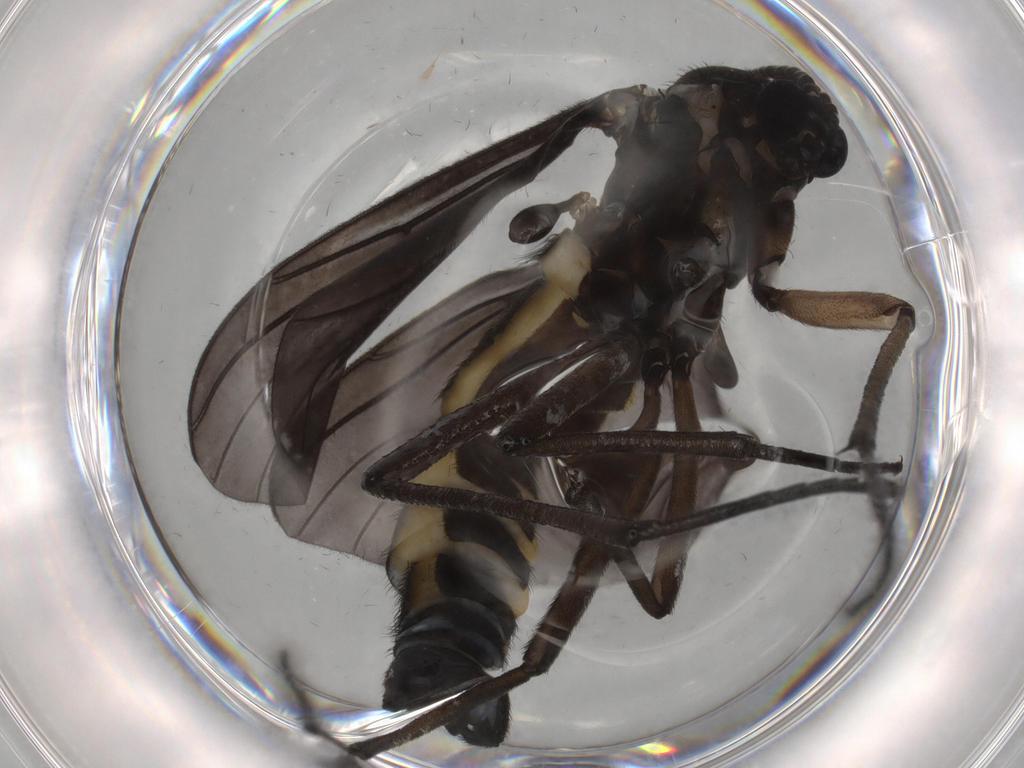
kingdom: Animalia
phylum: Arthropoda
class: Insecta
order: Diptera
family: Sciaridae
